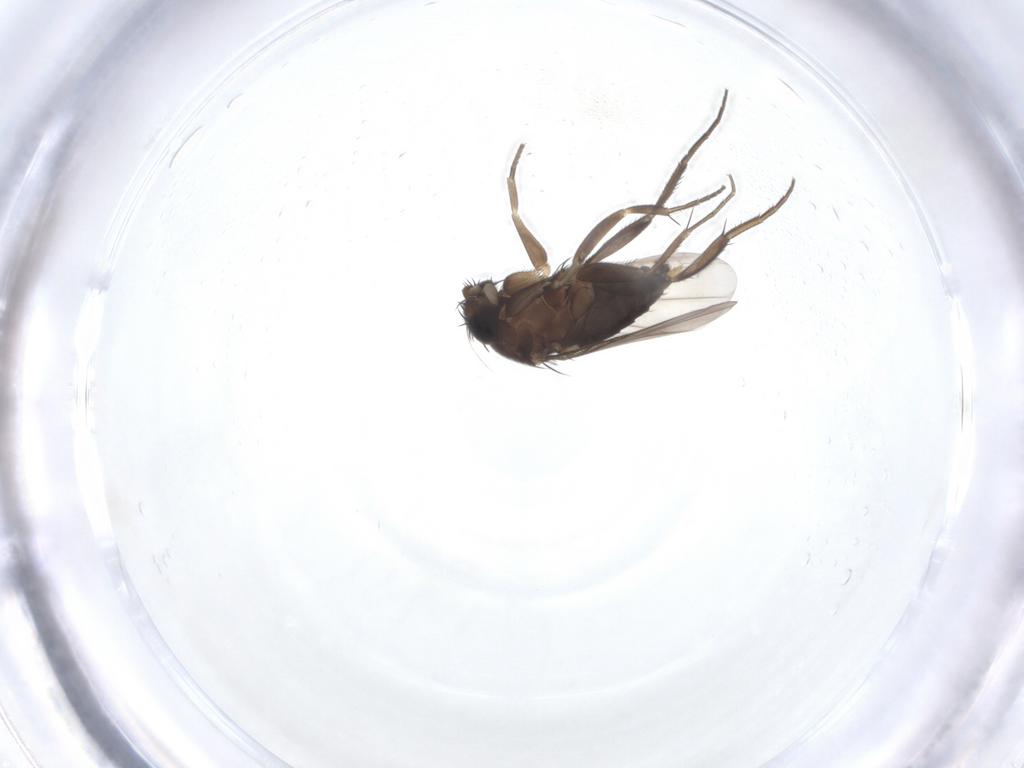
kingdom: Animalia
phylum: Arthropoda
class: Insecta
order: Diptera
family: Phoridae
